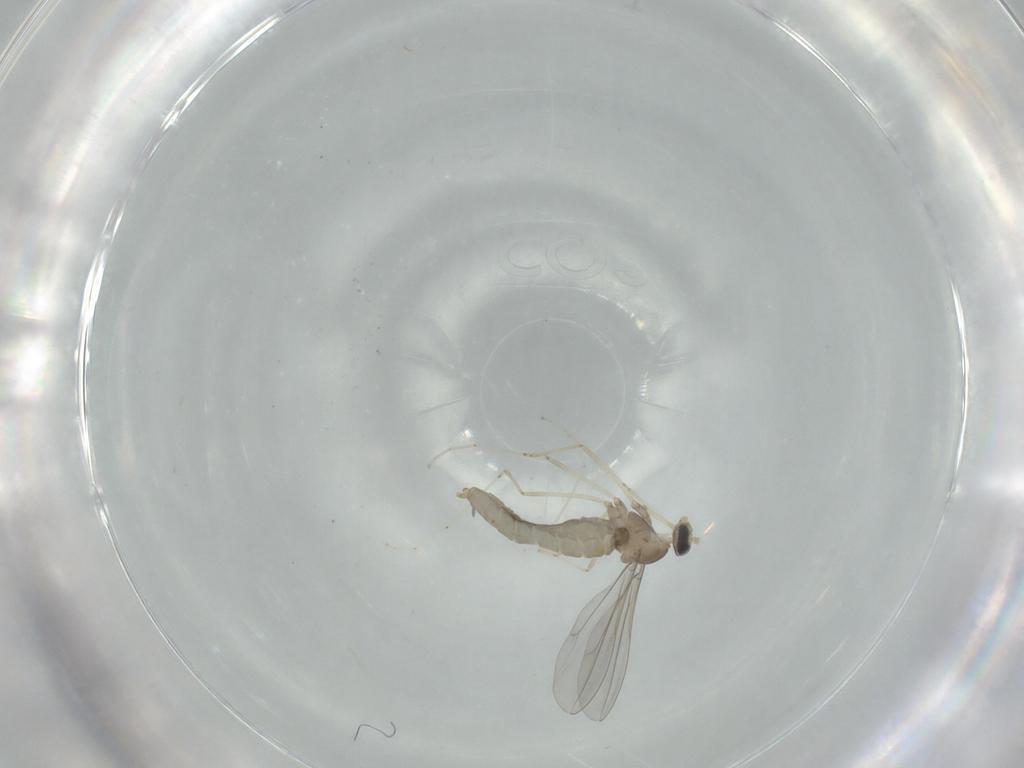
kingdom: Animalia
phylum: Arthropoda
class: Insecta
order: Diptera
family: Cecidomyiidae
